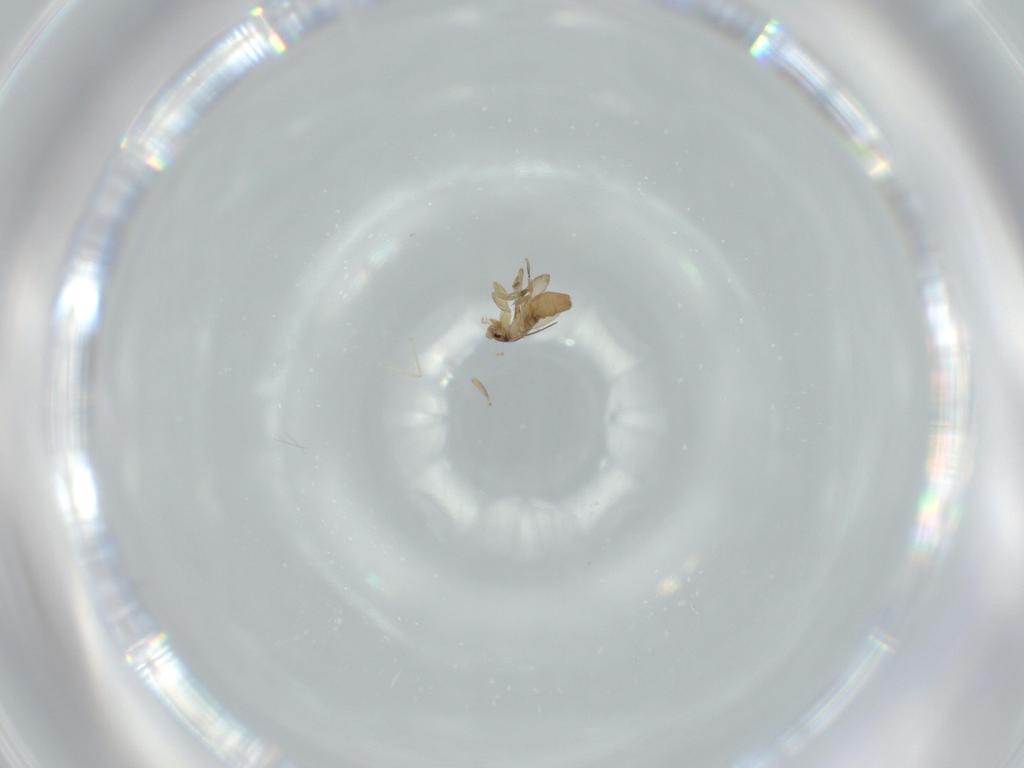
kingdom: Animalia
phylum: Arthropoda
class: Insecta
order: Diptera
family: Phoridae
